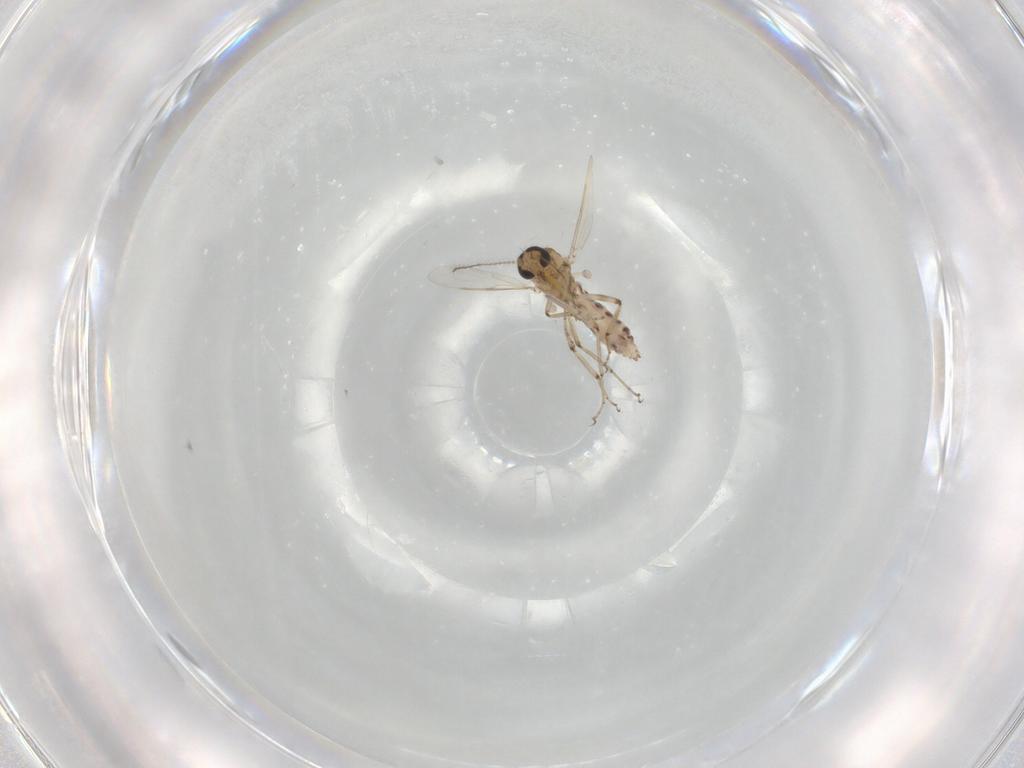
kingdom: Animalia
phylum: Arthropoda
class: Insecta
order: Diptera
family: Ceratopogonidae
